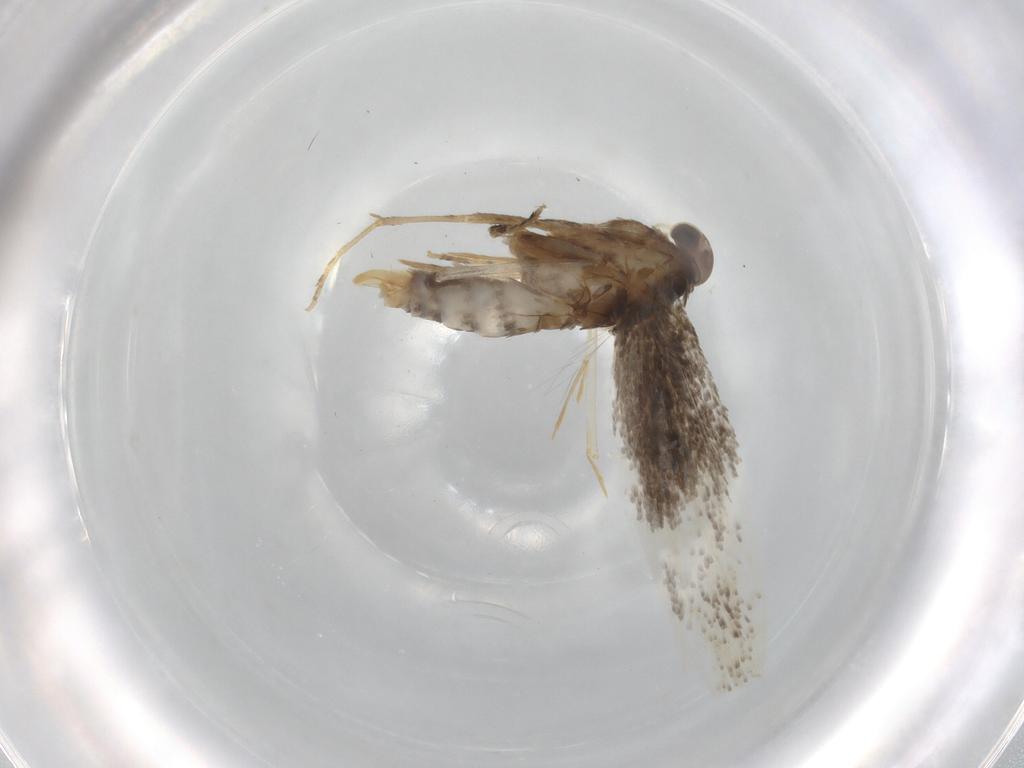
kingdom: Animalia
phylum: Arthropoda
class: Insecta
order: Lepidoptera
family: Elachistidae
